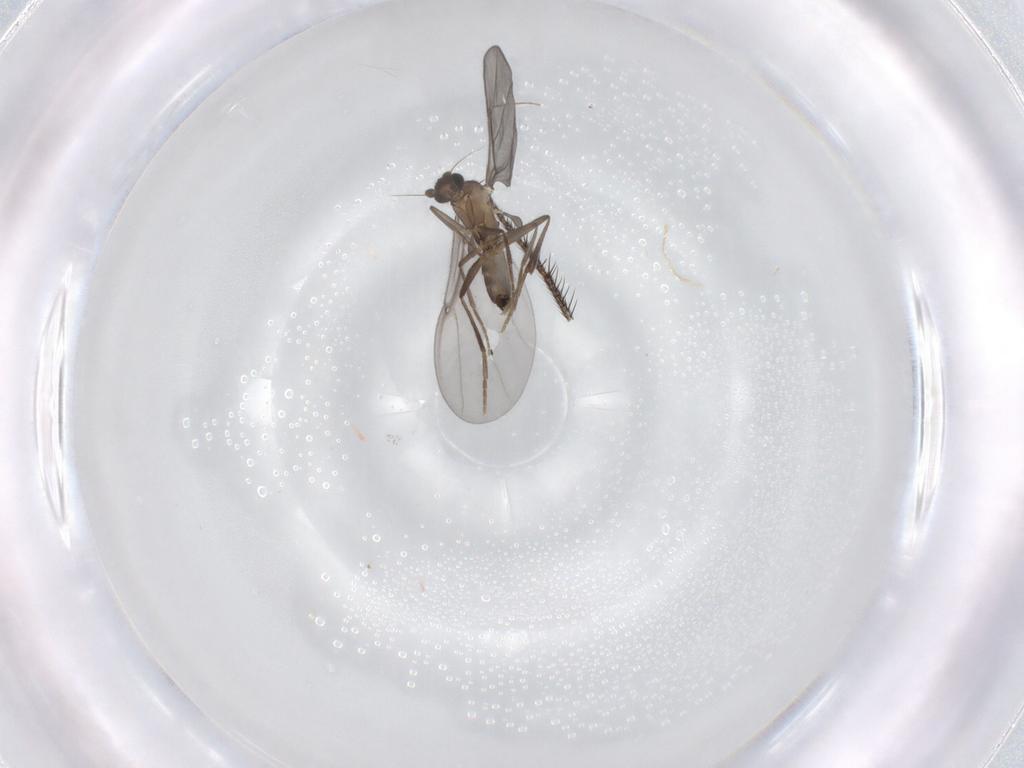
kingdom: Animalia
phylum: Arthropoda
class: Insecta
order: Diptera
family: Phoridae
